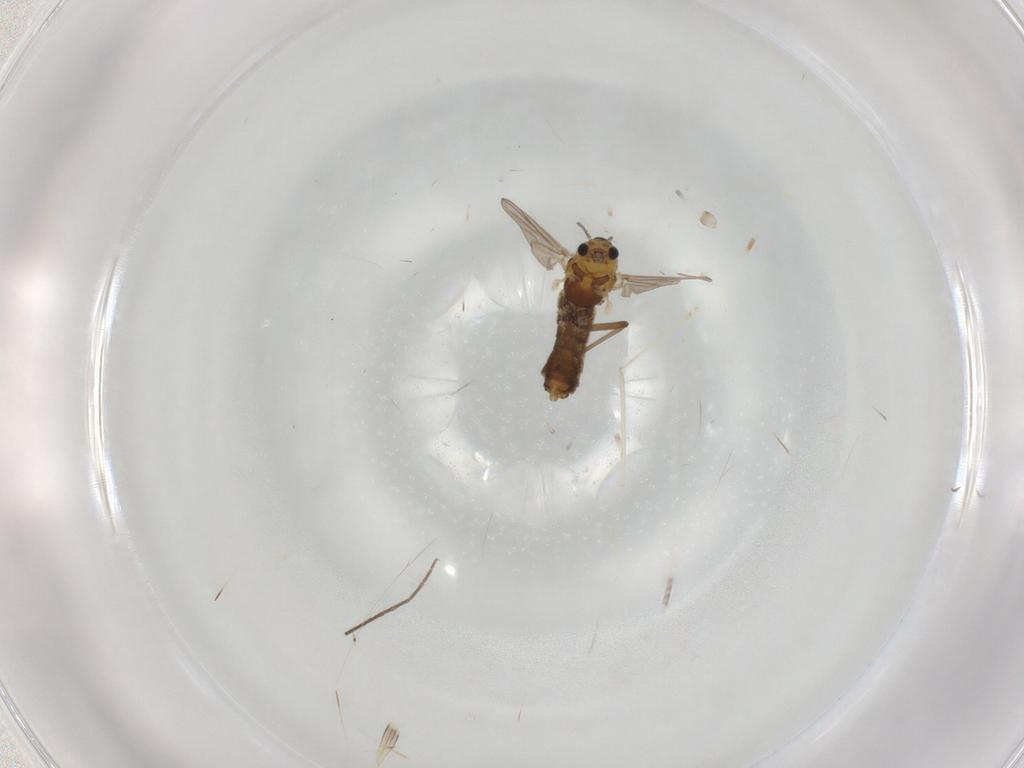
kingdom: Animalia
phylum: Arthropoda
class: Insecta
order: Diptera
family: Chironomidae
